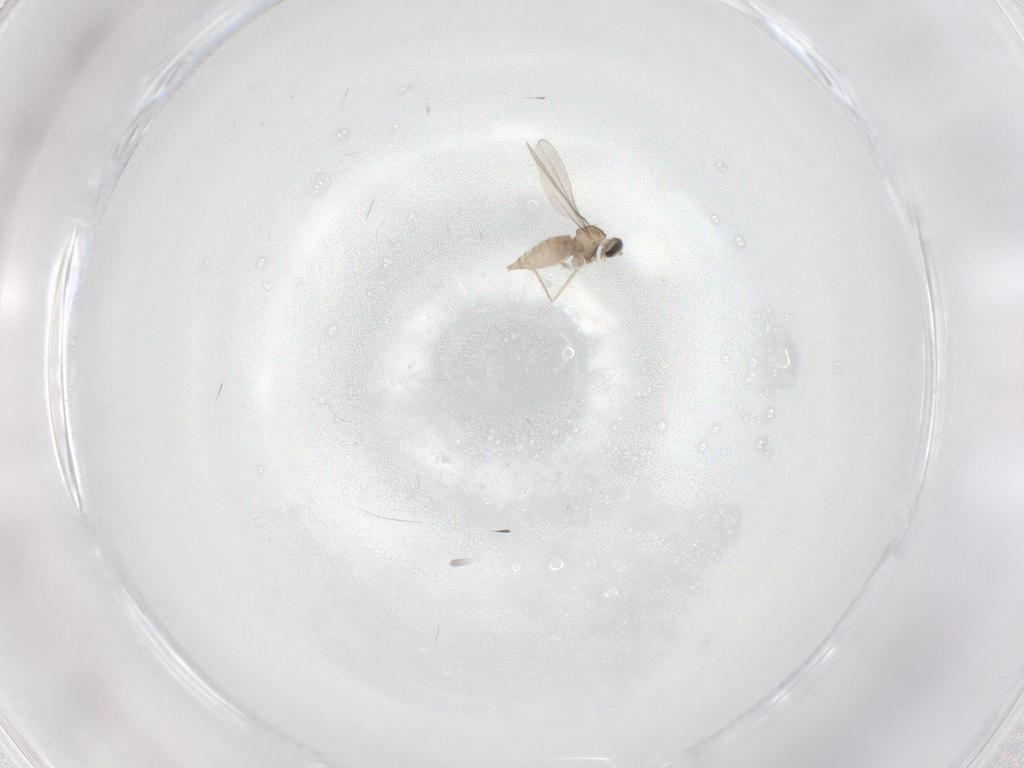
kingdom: Animalia
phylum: Arthropoda
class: Insecta
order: Diptera
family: Cecidomyiidae
